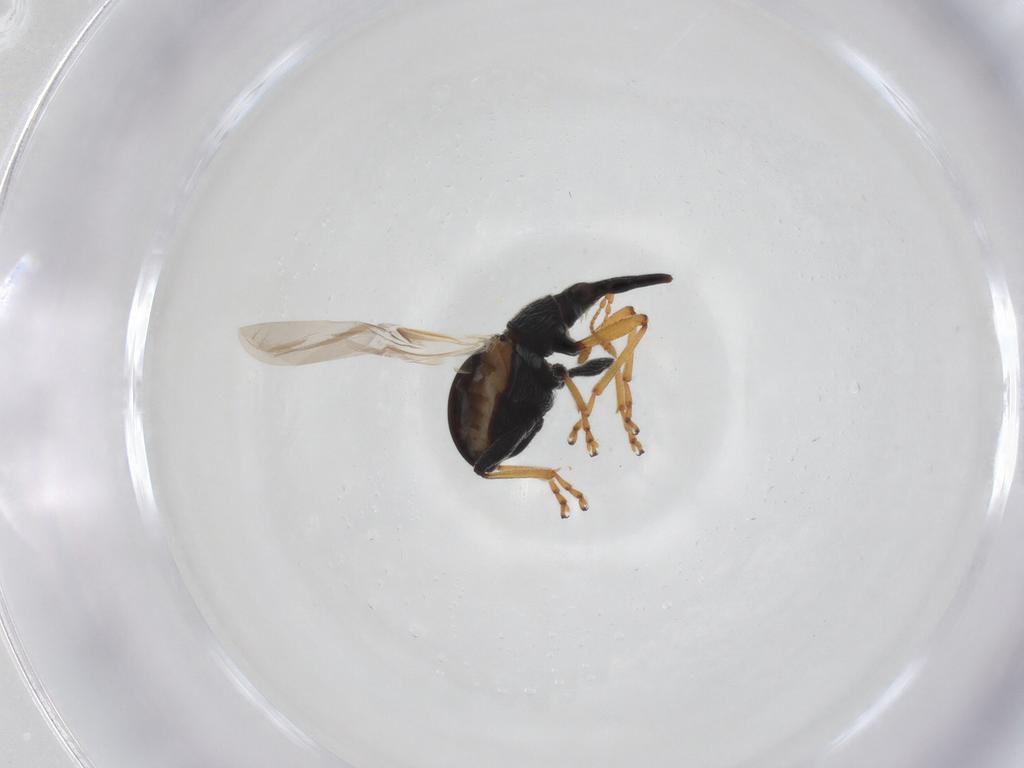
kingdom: Animalia
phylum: Arthropoda
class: Insecta
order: Coleoptera
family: Brentidae
